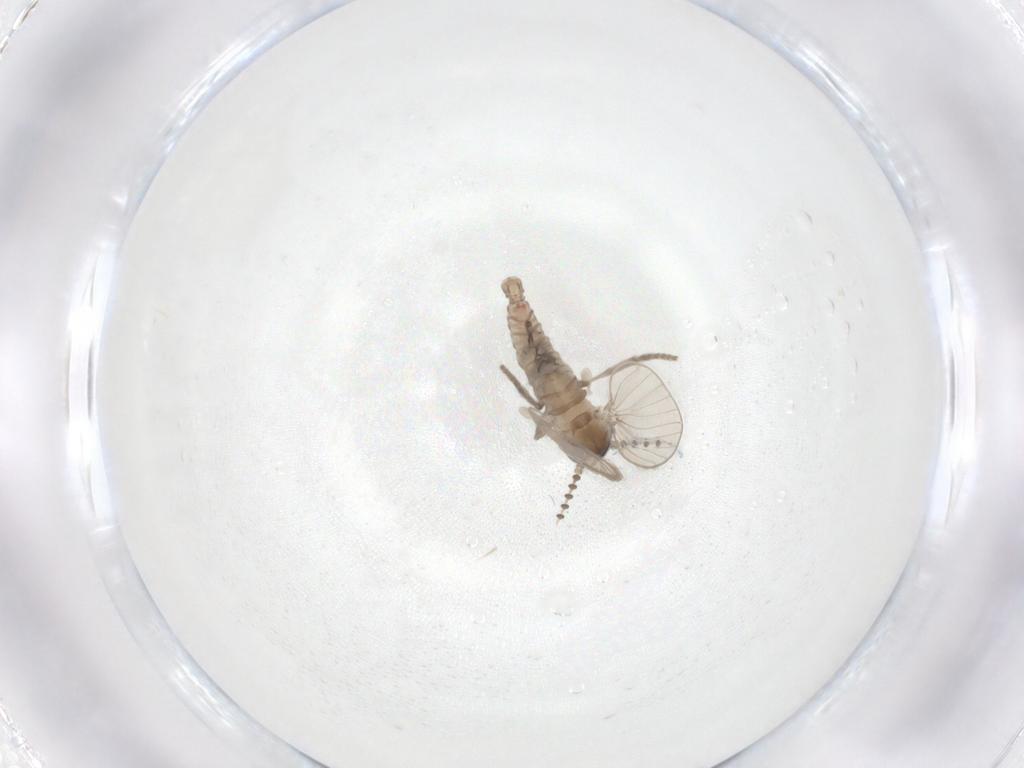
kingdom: Animalia
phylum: Arthropoda
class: Insecta
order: Diptera
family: Psychodidae
